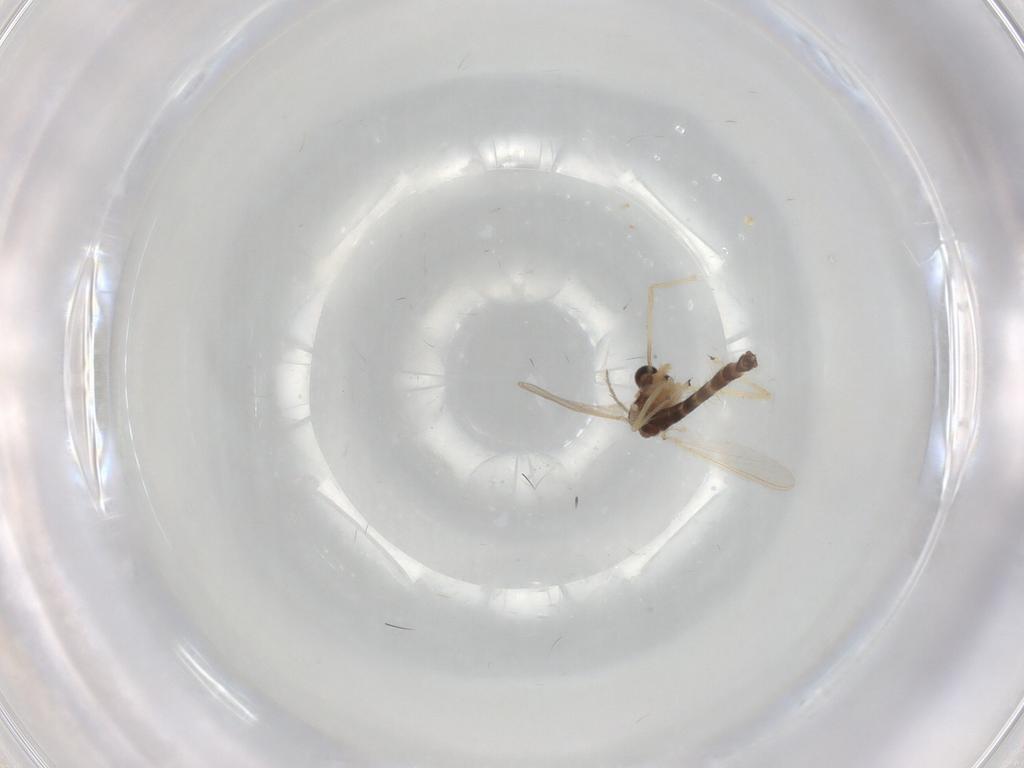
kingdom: Animalia
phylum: Arthropoda
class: Insecta
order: Diptera
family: Chironomidae
